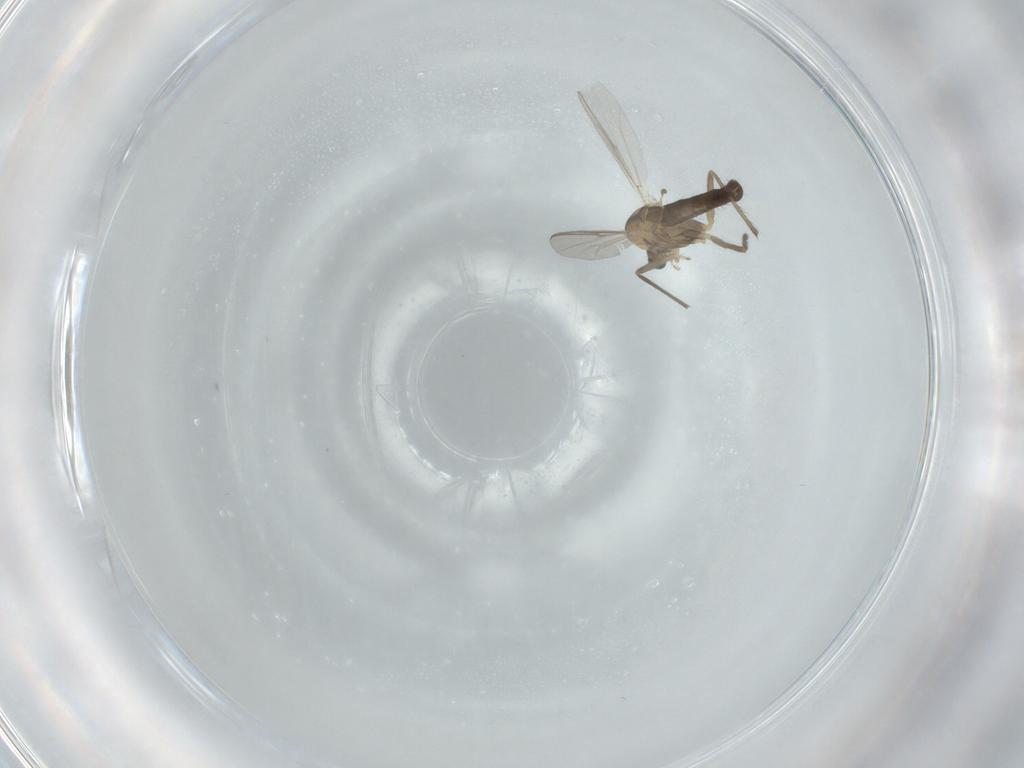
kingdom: Animalia
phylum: Arthropoda
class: Insecta
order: Diptera
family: Chironomidae
